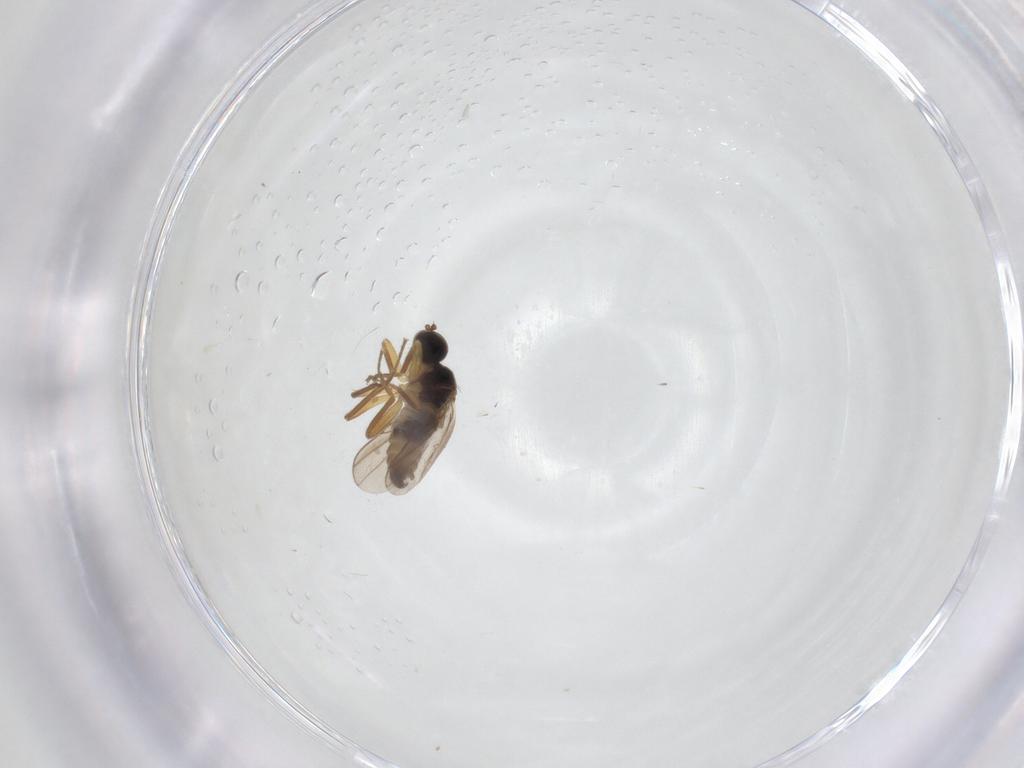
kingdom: Animalia
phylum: Arthropoda
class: Insecta
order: Diptera
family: Hybotidae
